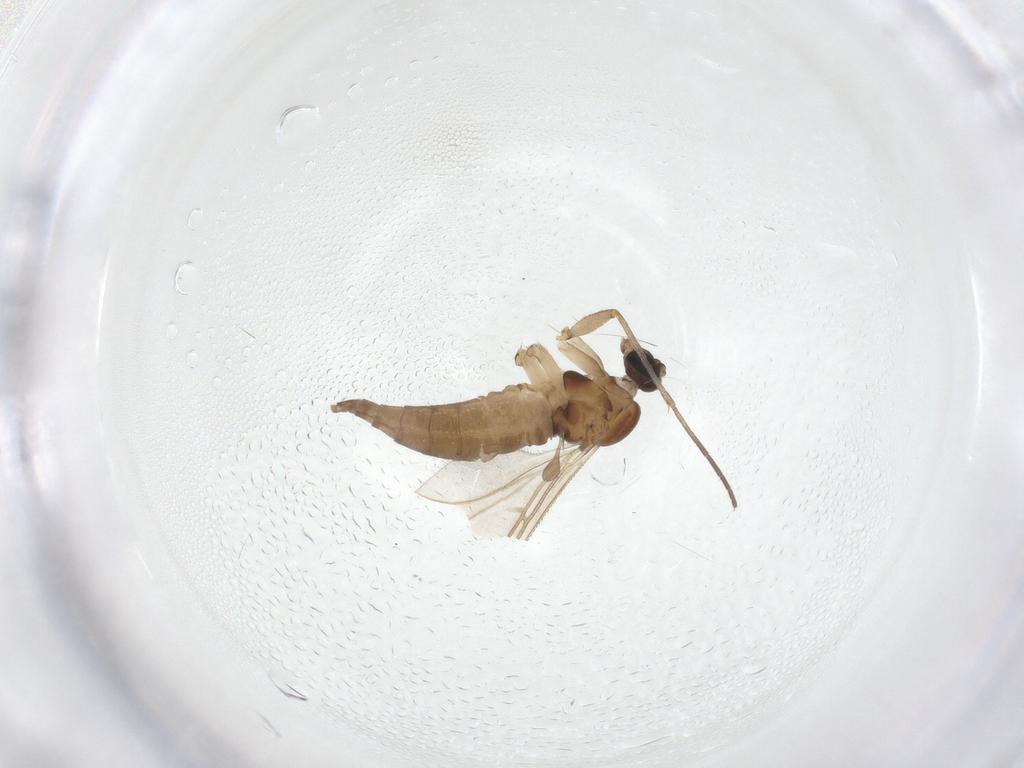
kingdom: Animalia
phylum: Arthropoda
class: Insecta
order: Diptera
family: Sciaridae
